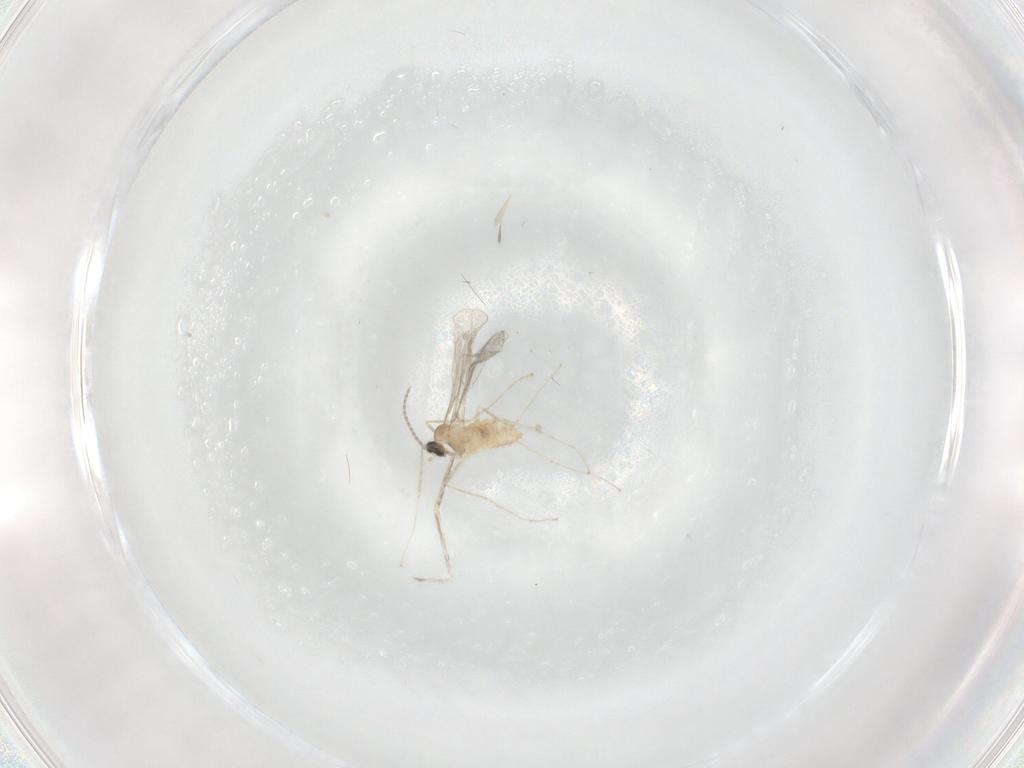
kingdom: Animalia
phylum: Arthropoda
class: Insecta
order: Diptera
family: Cecidomyiidae
